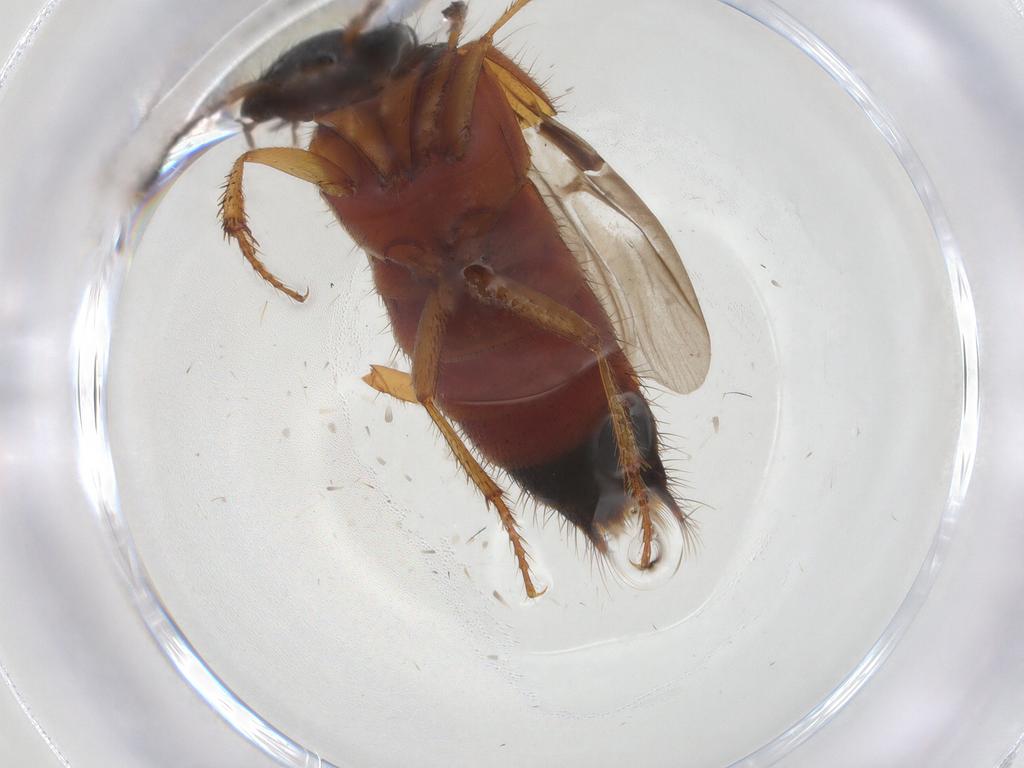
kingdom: Animalia
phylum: Arthropoda
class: Insecta
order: Coleoptera
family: Staphylinidae
